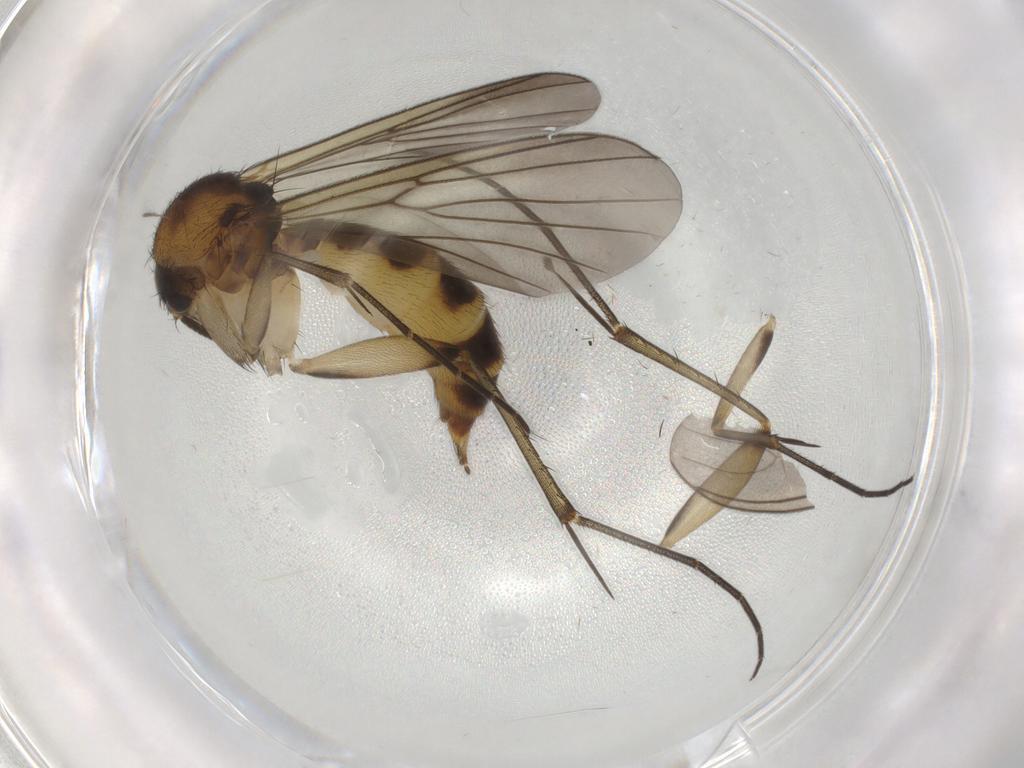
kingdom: Animalia
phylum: Arthropoda
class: Insecta
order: Diptera
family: Mycetophilidae
